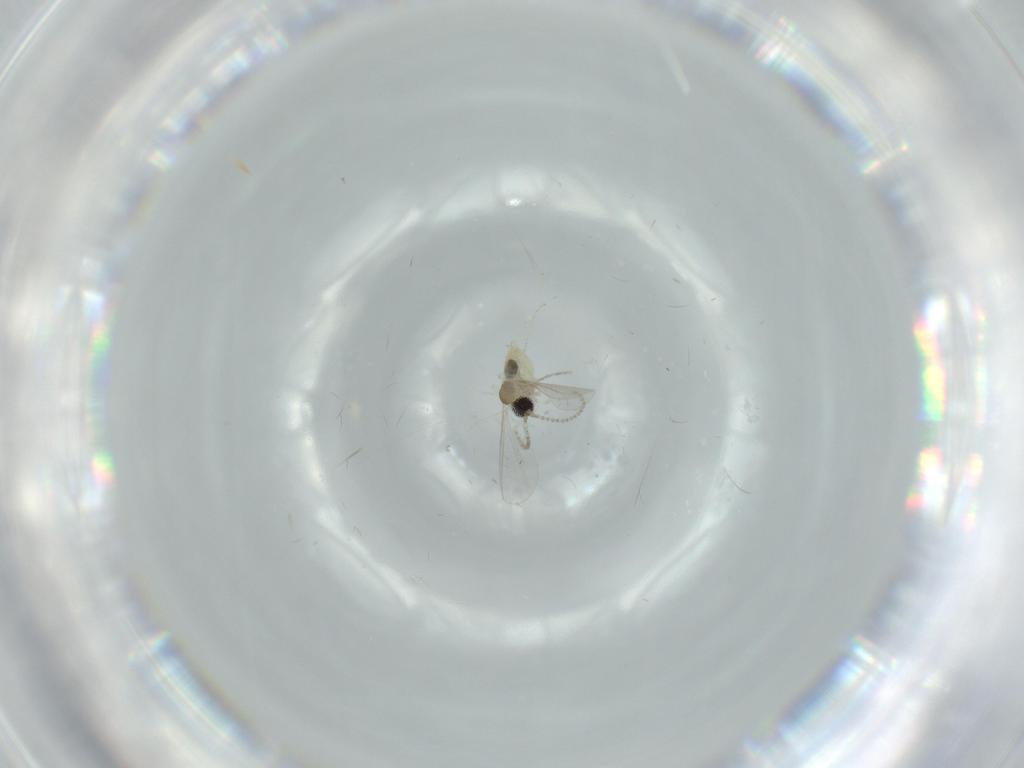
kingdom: Animalia
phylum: Arthropoda
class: Insecta
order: Diptera
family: Cecidomyiidae
